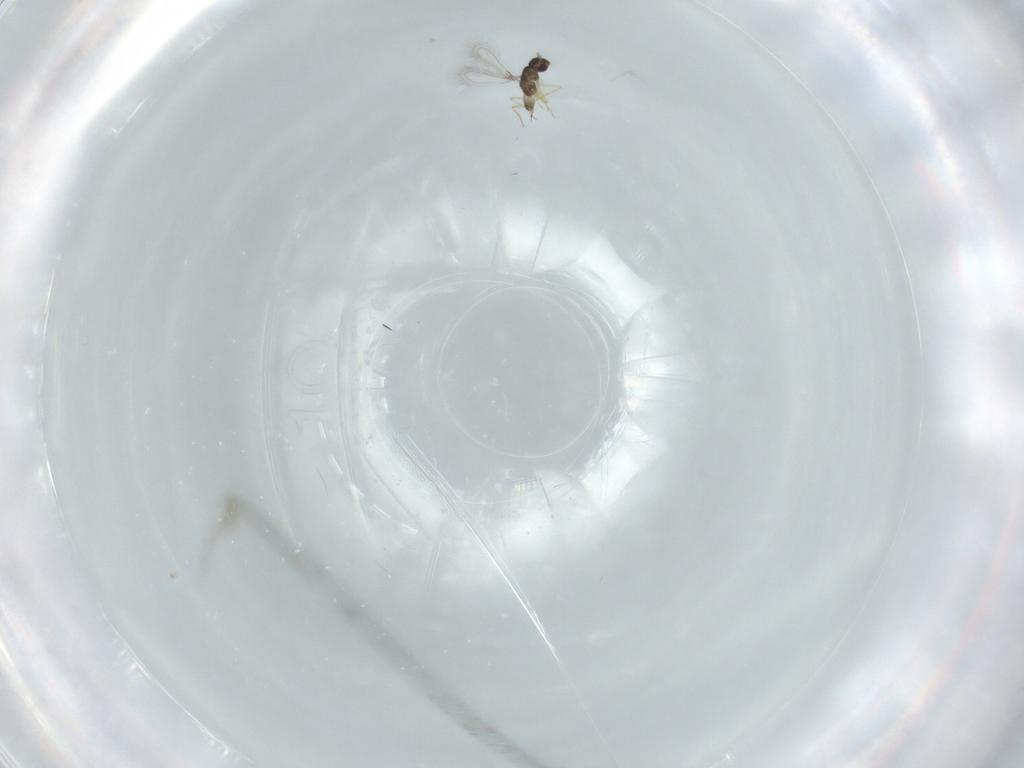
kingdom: Animalia
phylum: Arthropoda
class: Insecta
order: Hymenoptera
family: Mymaridae
